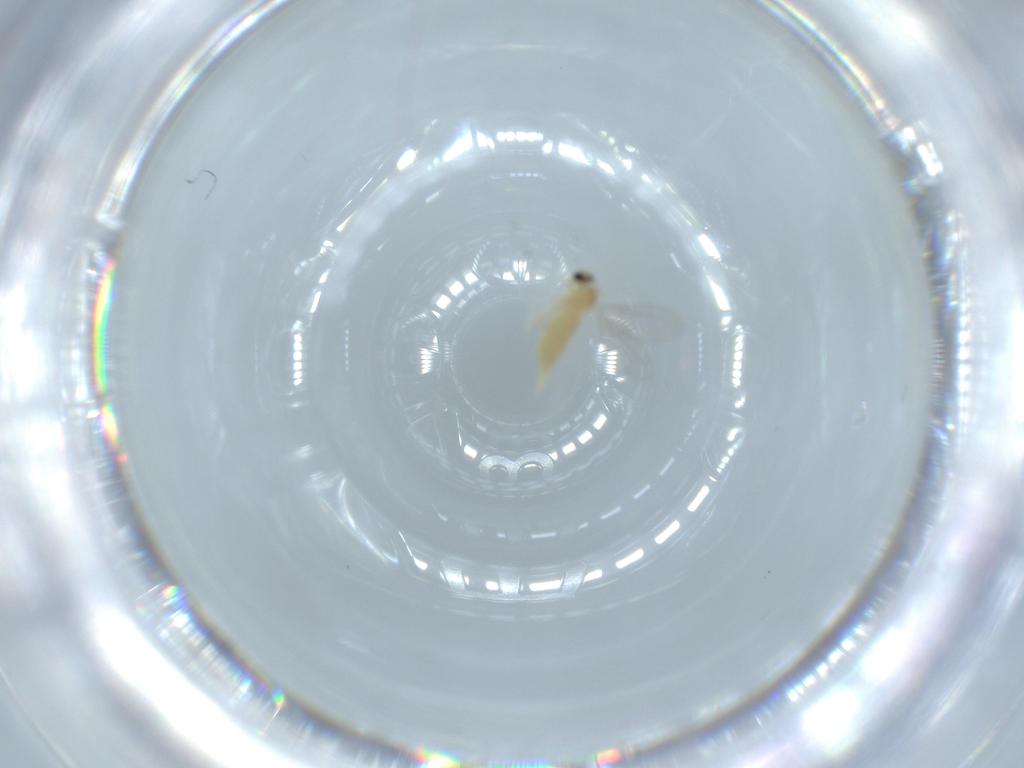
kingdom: Animalia
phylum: Arthropoda
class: Insecta
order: Diptera
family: Cecidomyiidae
